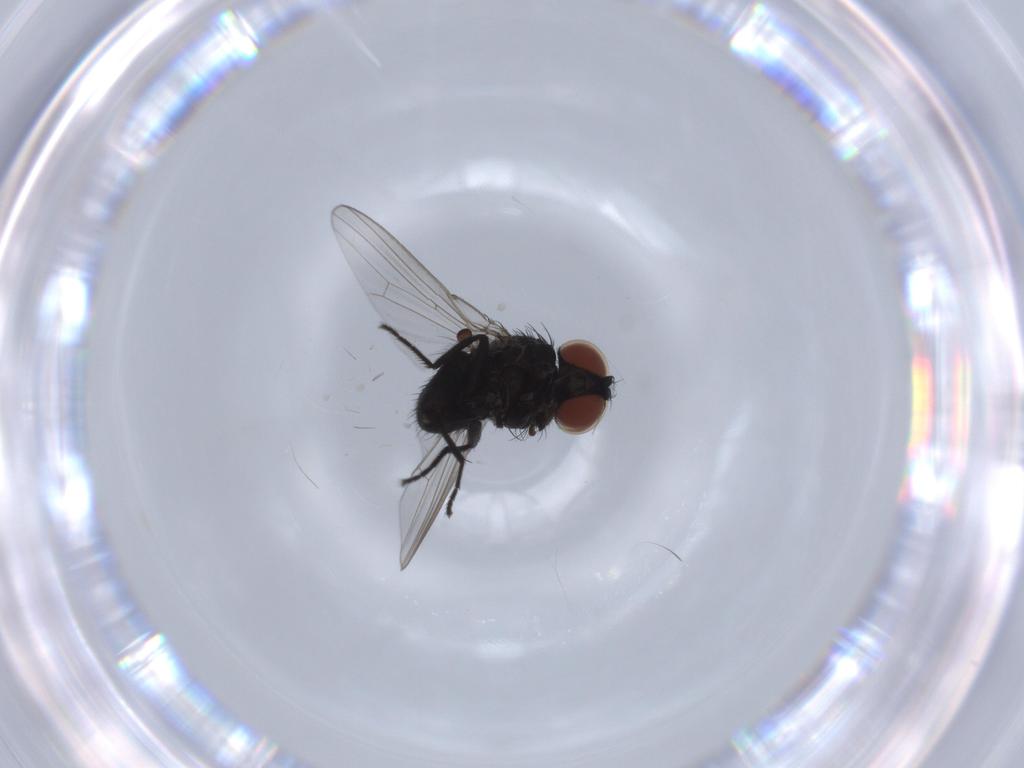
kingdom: Animalia
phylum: Arthropoda
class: Insecta
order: Diptera
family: Milichiidae
